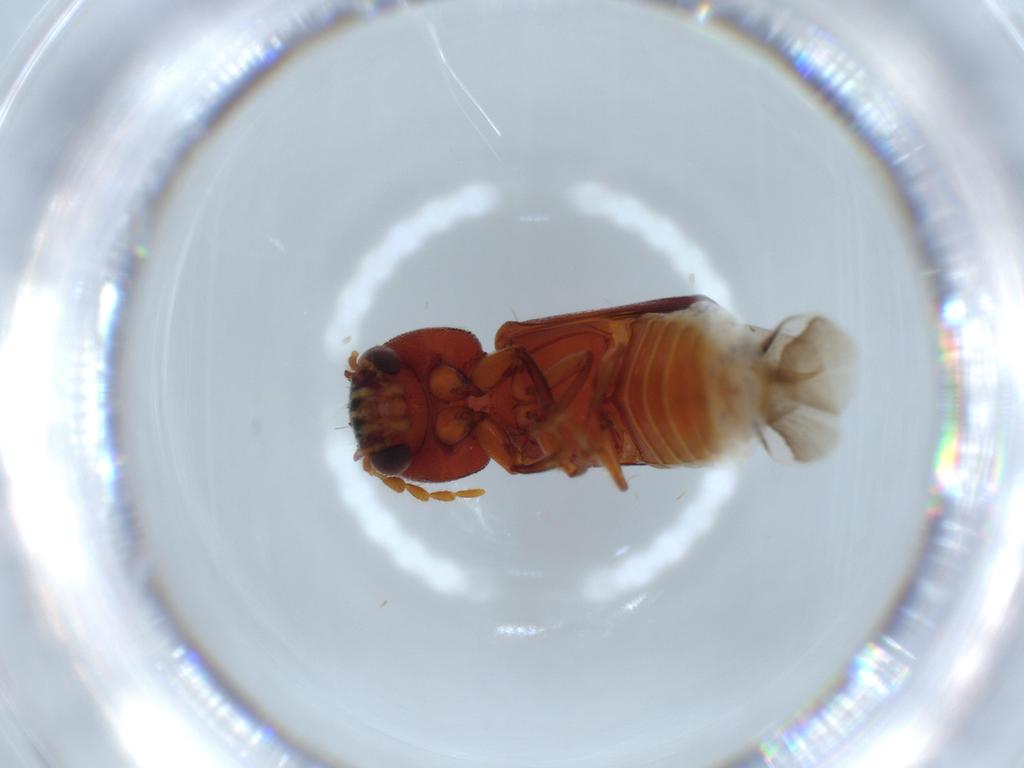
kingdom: Animalia
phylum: Arthropoda
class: Insecta
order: Coleoptera
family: Bostrichidae
